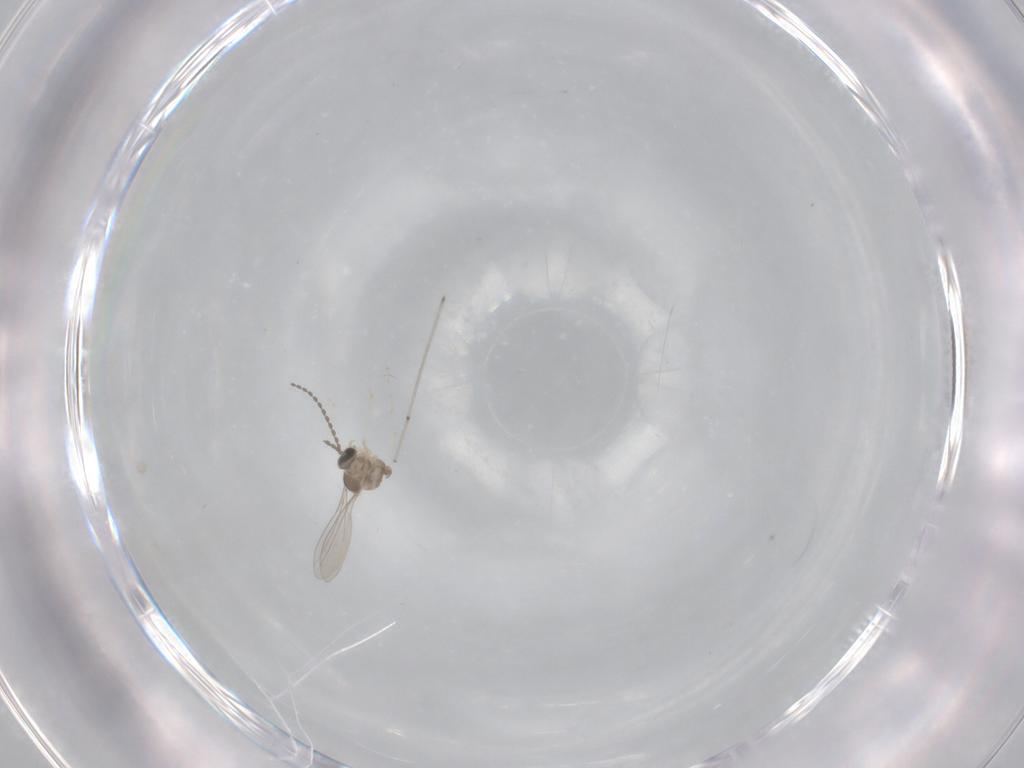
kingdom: Animalia
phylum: Arthropoda
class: Insecta
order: Diptera
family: Cecidomyiidae
